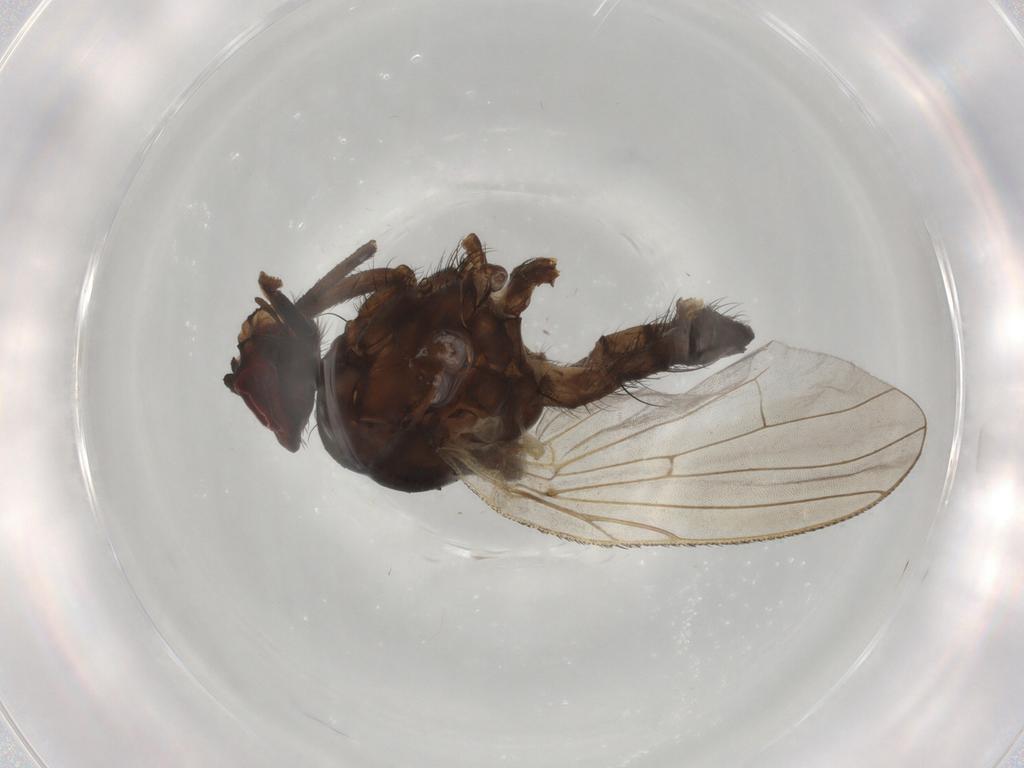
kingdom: Animalia
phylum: Arthropoda
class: Insecta
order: Diptera
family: Anthomyiidae
